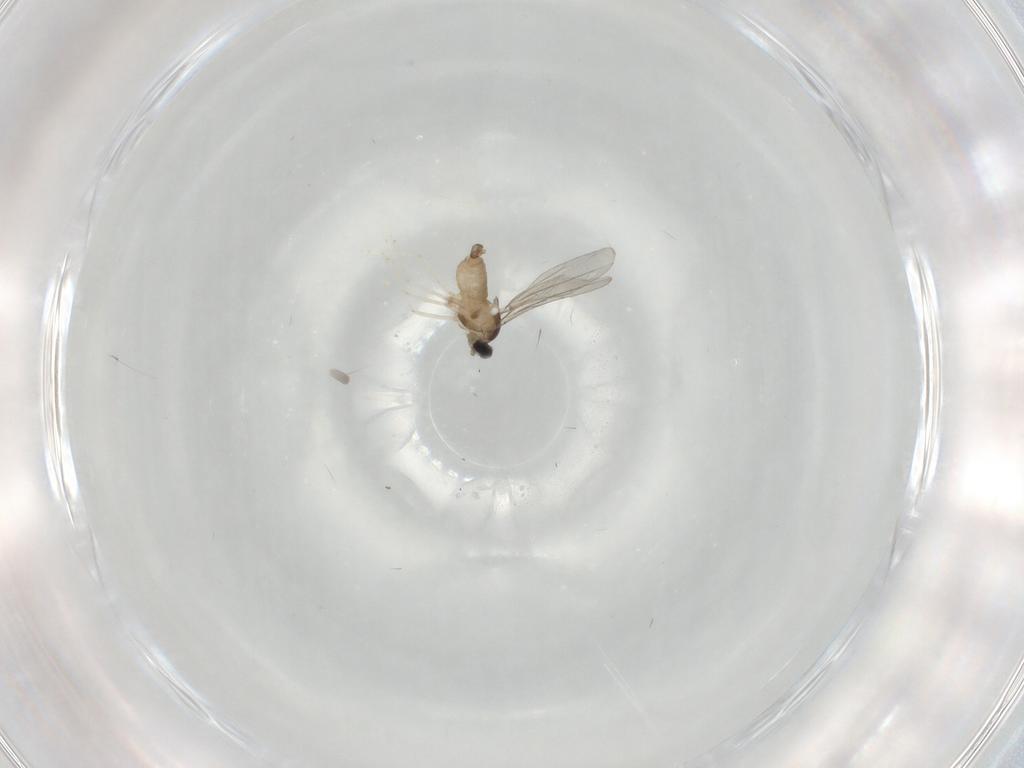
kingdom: Animalia
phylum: Arthropoda
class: Insecta
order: Diptera
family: Cecidomyiidae
